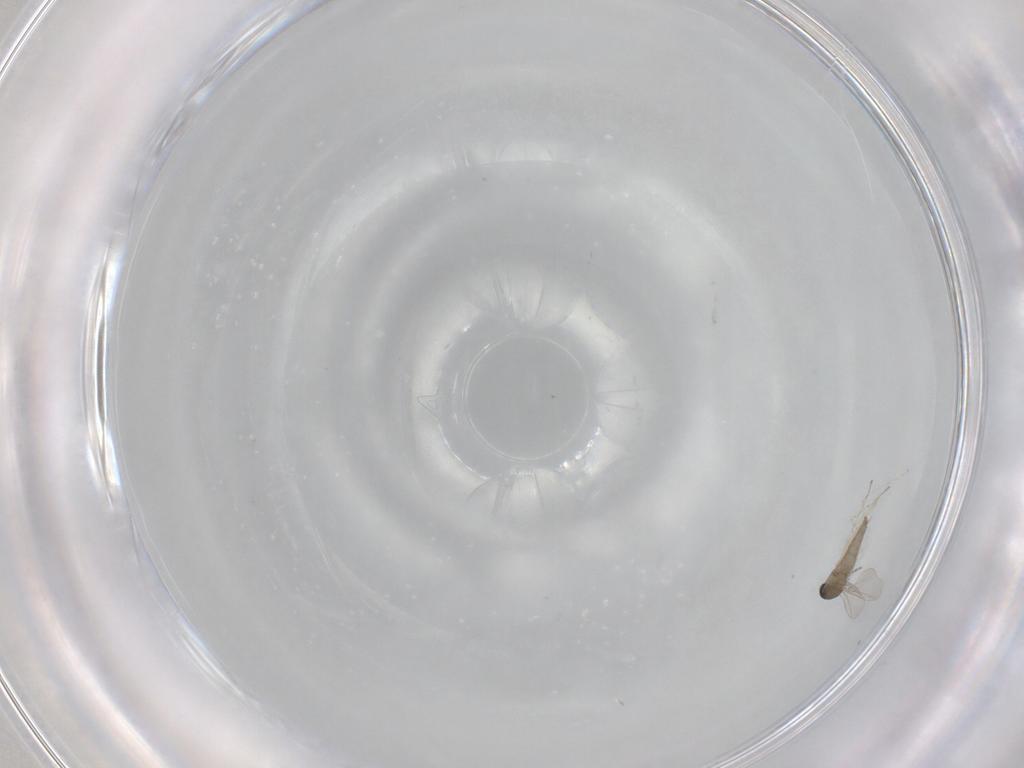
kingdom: Animalia
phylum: Arthropoda
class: Insecta
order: Diptera
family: Cecidomyiidae
